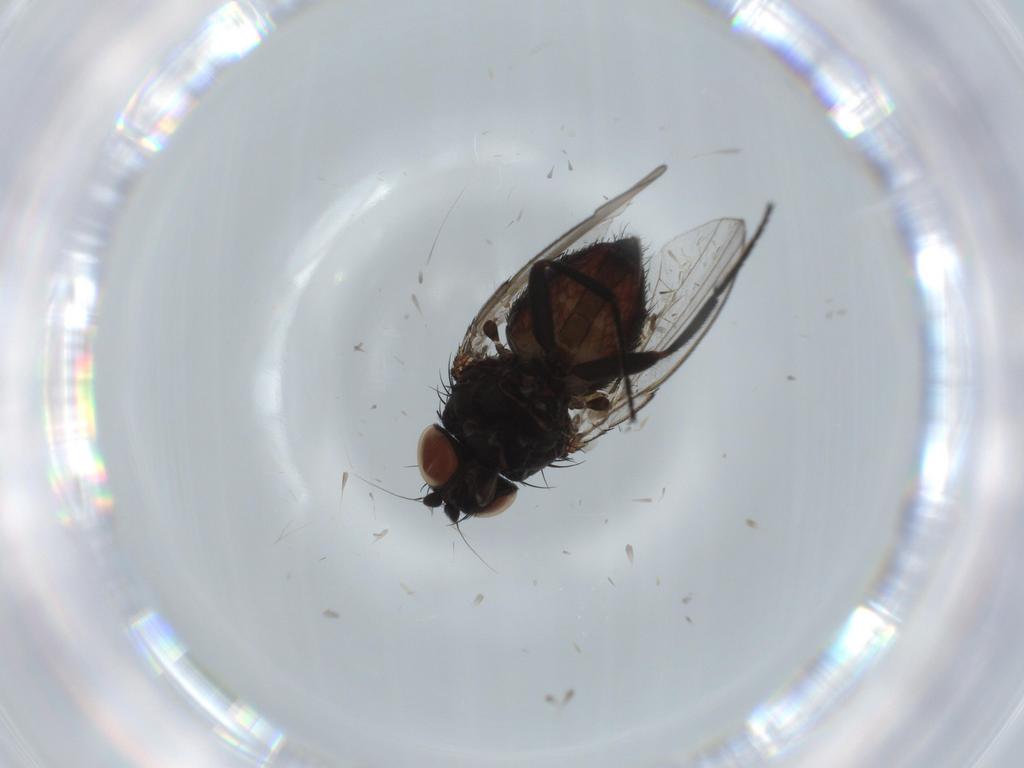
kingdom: Animalia
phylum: Arthropoda
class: Insecta
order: Diptera
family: Milichiidae
